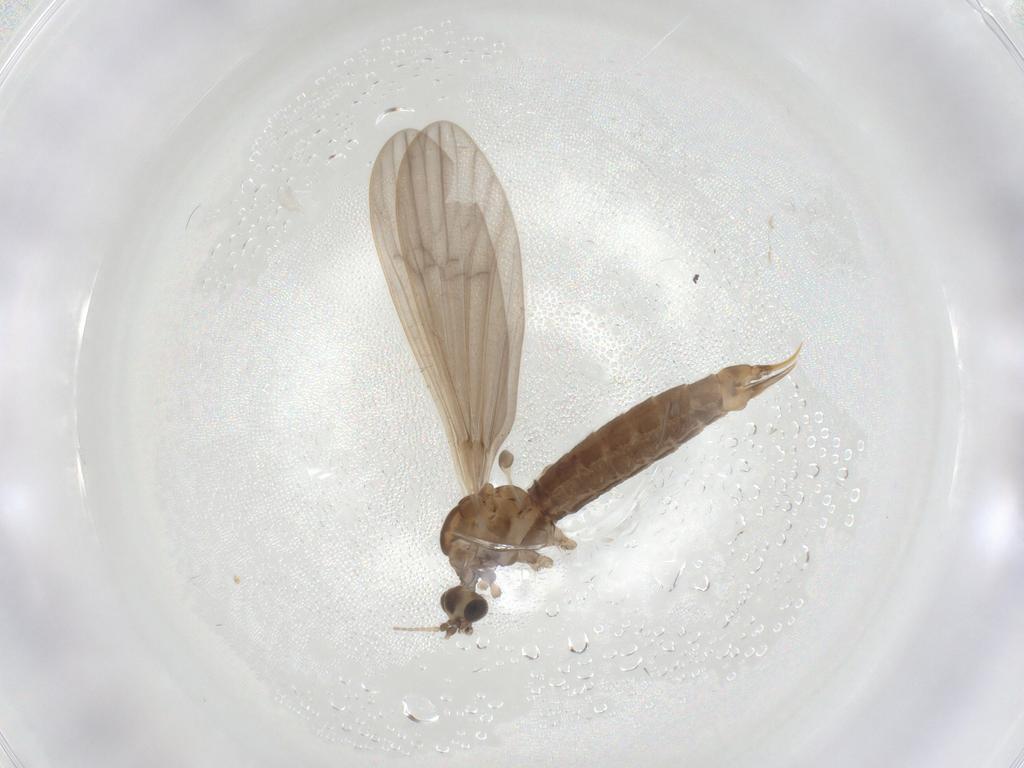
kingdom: Animalia
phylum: Arthropoda
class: Insecta
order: Diptera
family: Limoniidae
